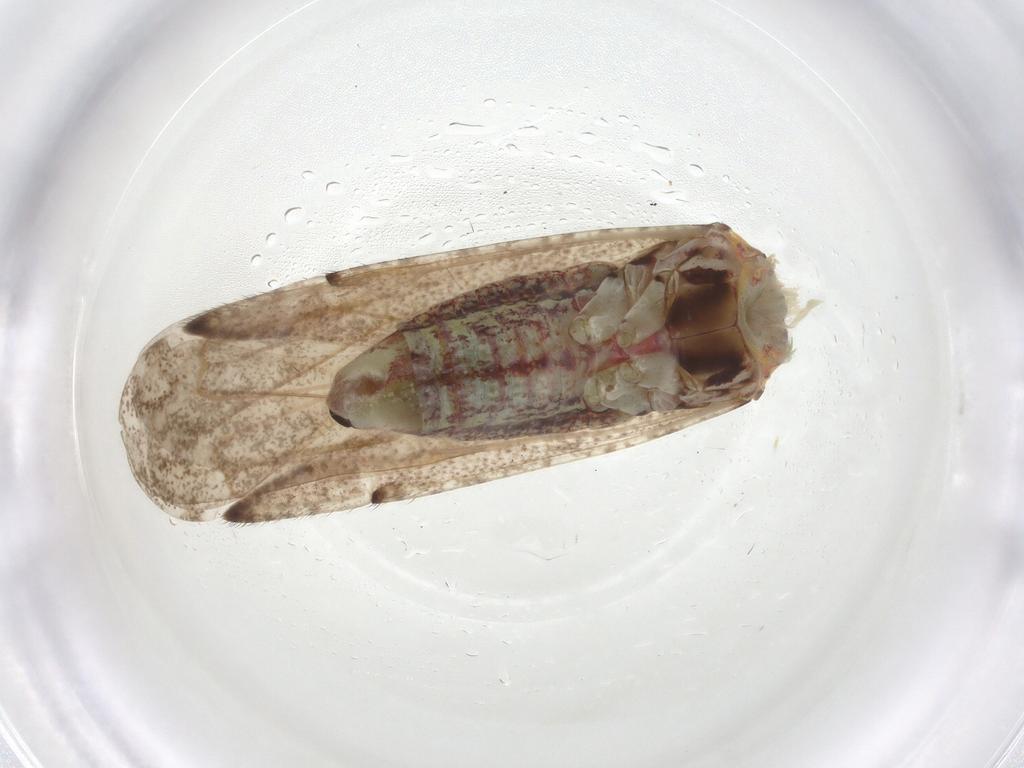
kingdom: Animalia
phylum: Arthropoda
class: Insecta
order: Hemiptera
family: Miridae
